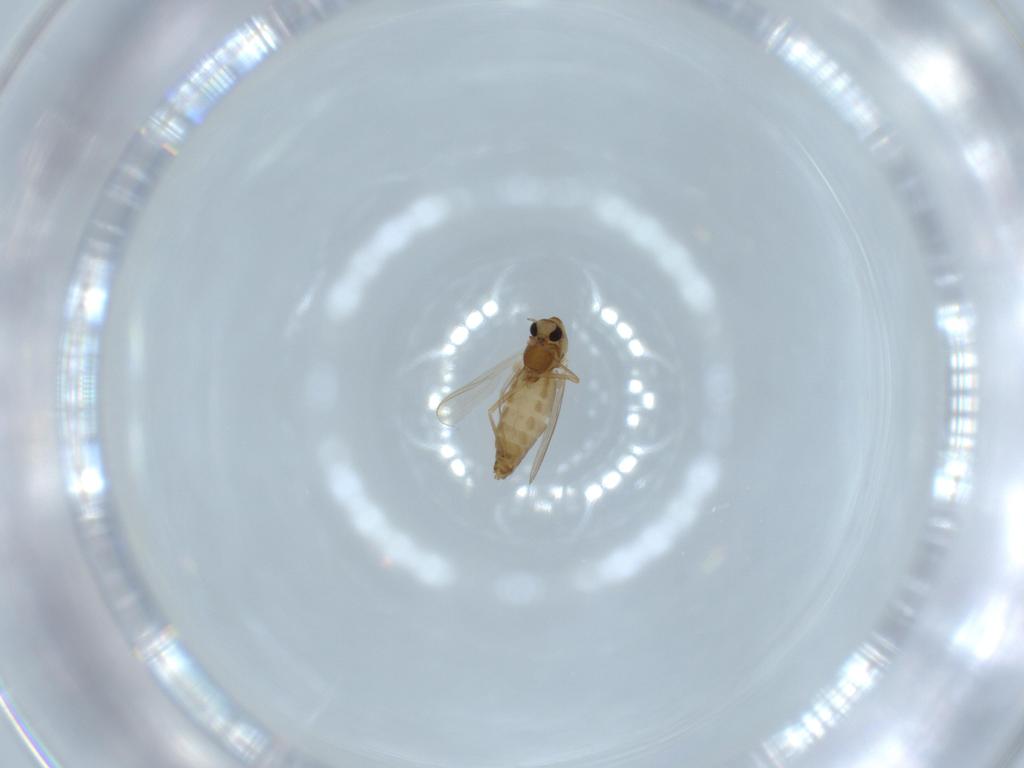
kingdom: Animalia
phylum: Arthropoda
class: Insecta
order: Diptera
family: Chironomidae
